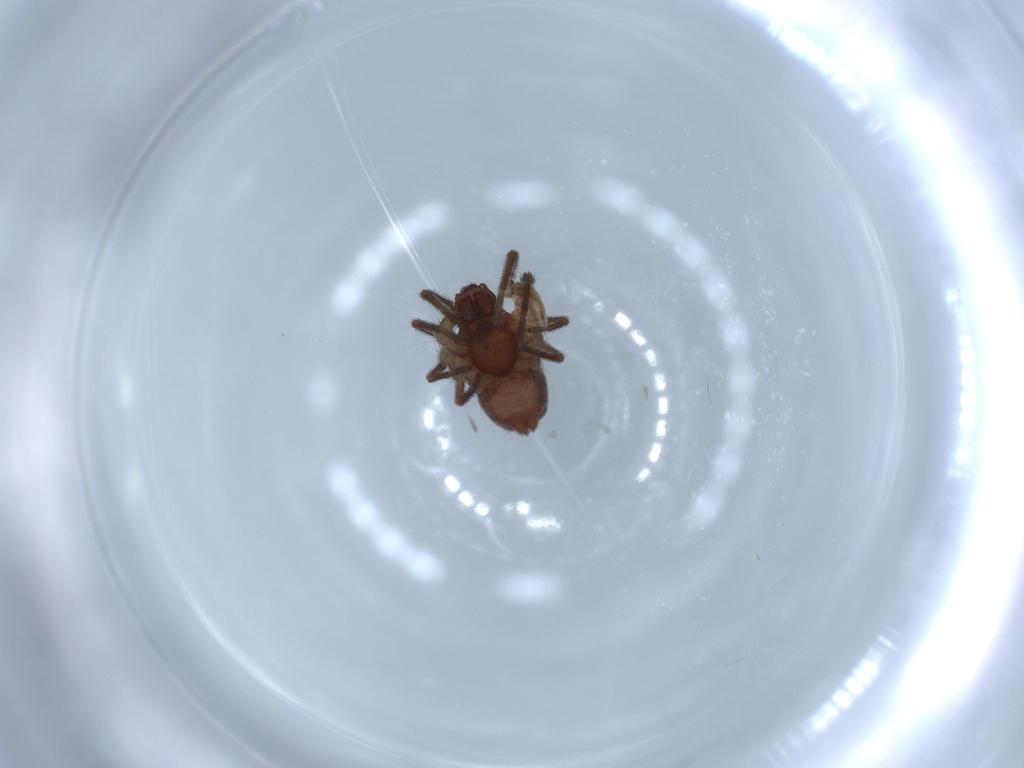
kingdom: Animalia
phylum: Arthropoda
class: Arachnida
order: Araneae
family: Dictynidae
